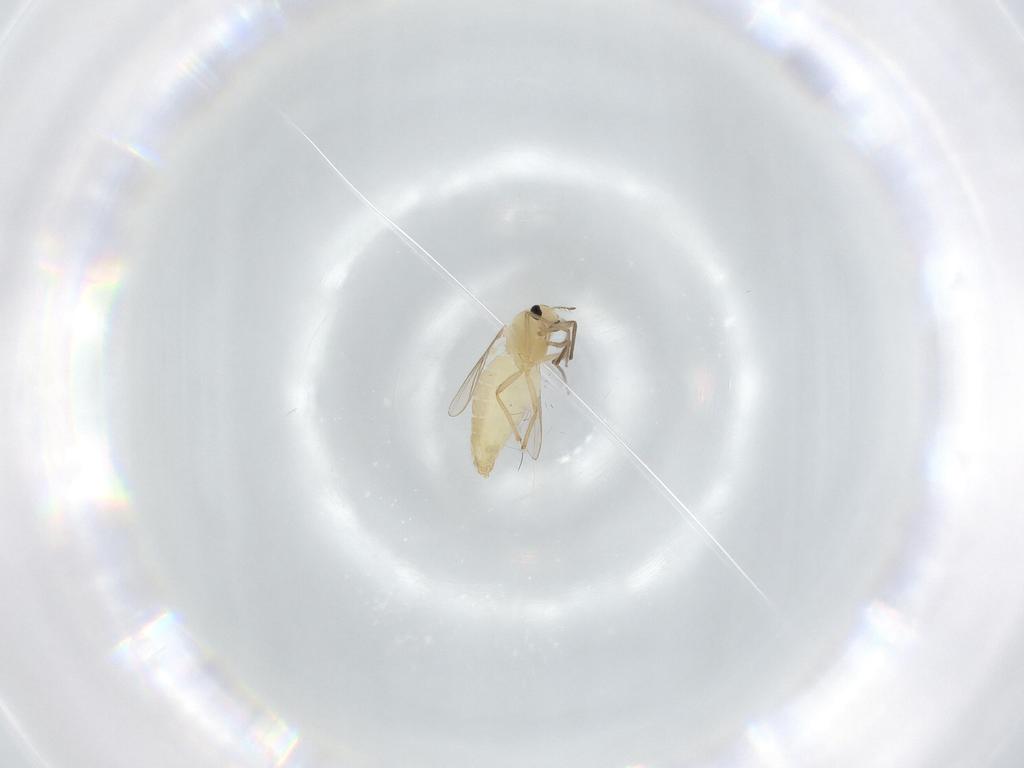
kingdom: Animalia
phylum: Arthropoda
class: Insecta
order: Diptera
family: Chironomidae
